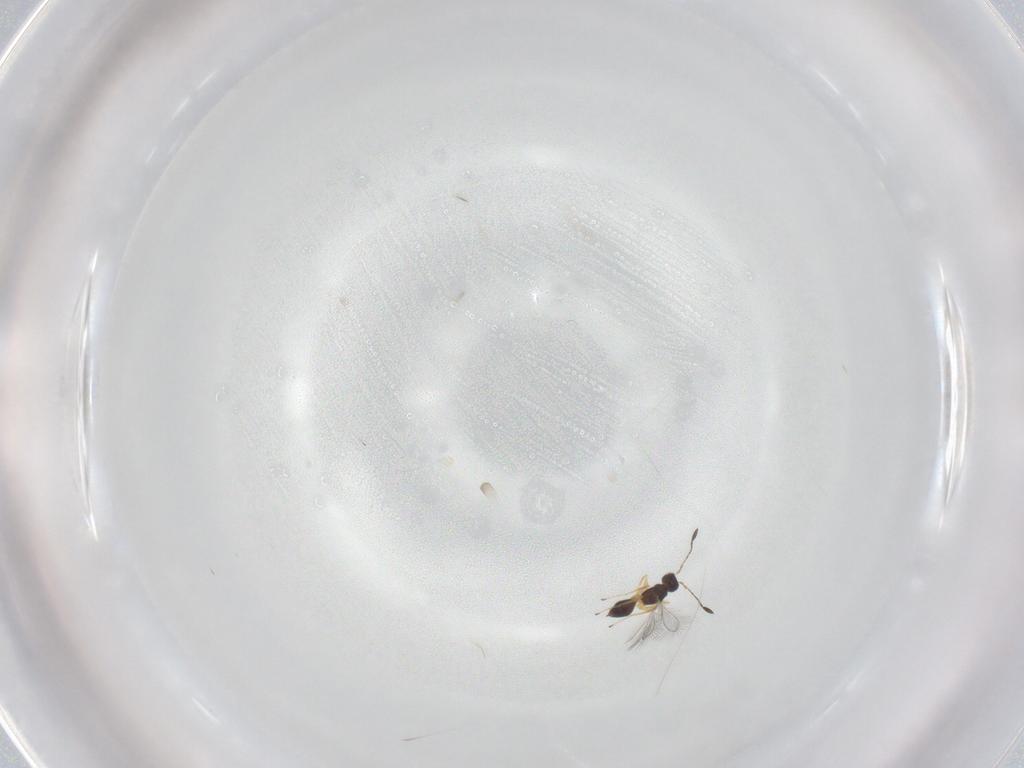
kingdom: Animalia
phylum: Arthropoda
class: Insecta
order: Hymenoptera
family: Mymaridae
